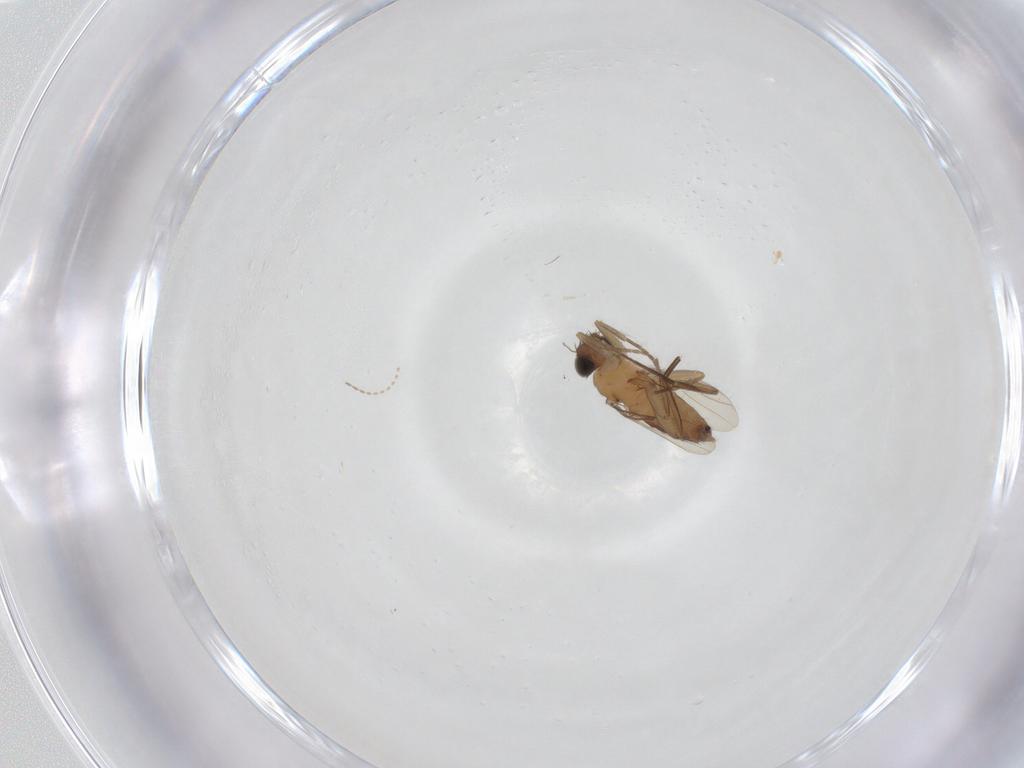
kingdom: Animalia
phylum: Arthropoda
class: Insecta
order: Diptera
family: Phoridae
